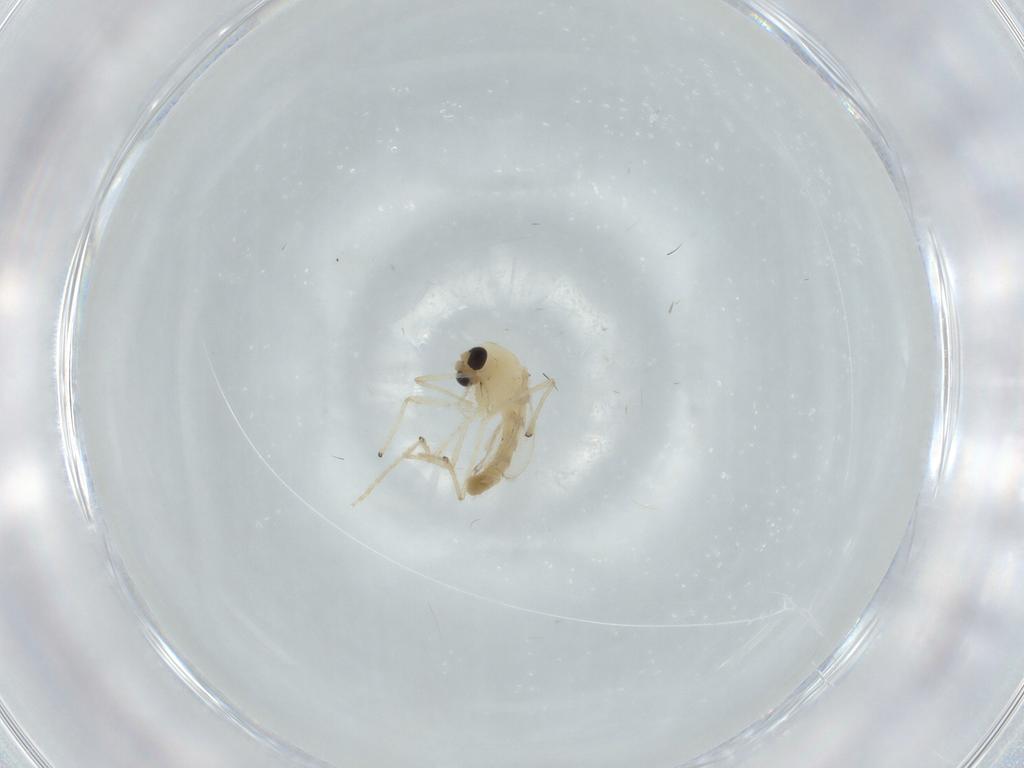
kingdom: Animalia
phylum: Arthropoda
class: Insecta
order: Diptera
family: Chironomidae
